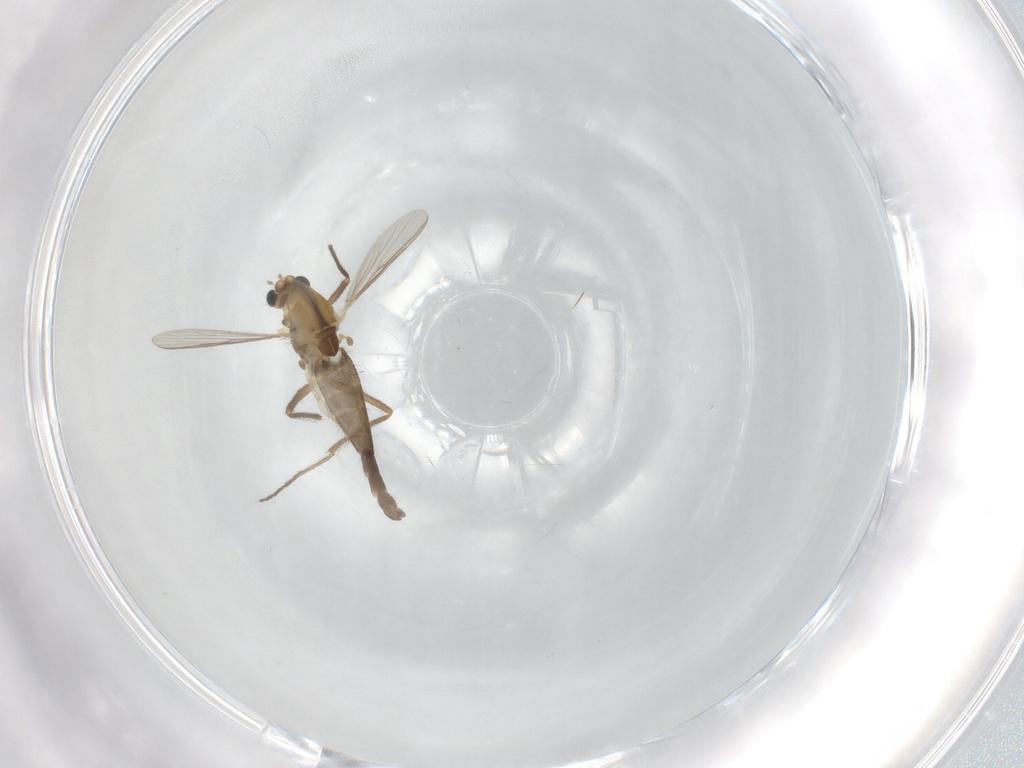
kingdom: Animalia
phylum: Arthropoda
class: Insecta
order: Diptera
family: Chironomidae
